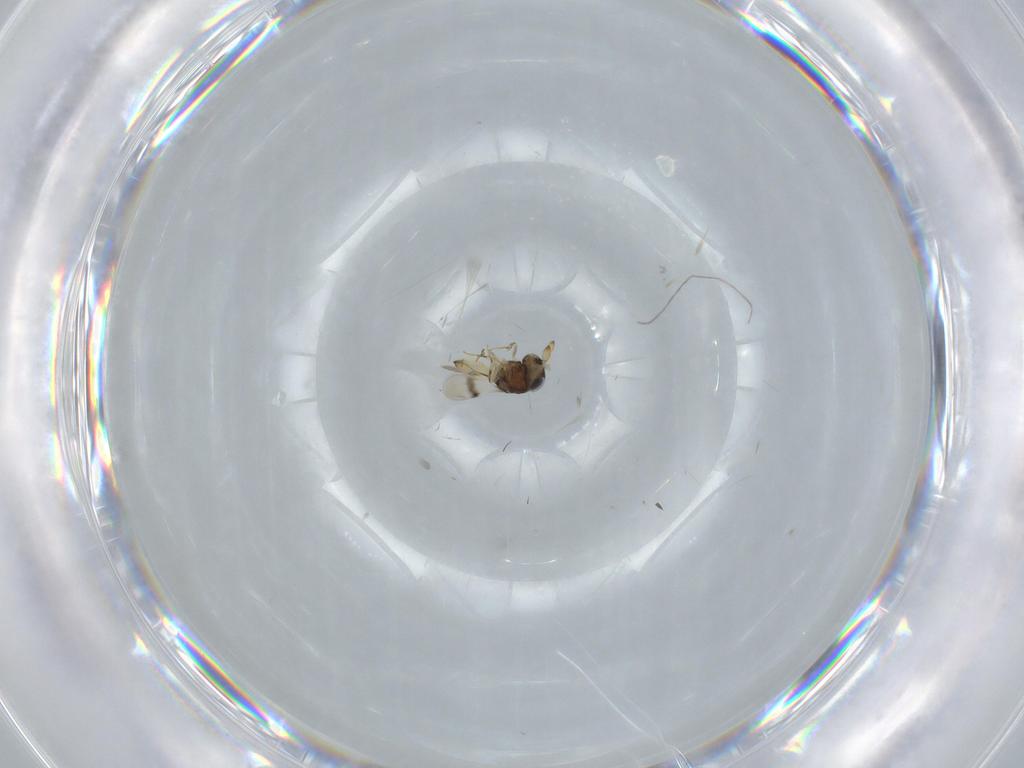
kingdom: Animalia
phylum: Arthropoda
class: Insecta
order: Hymenoptera
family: Scelionidae
